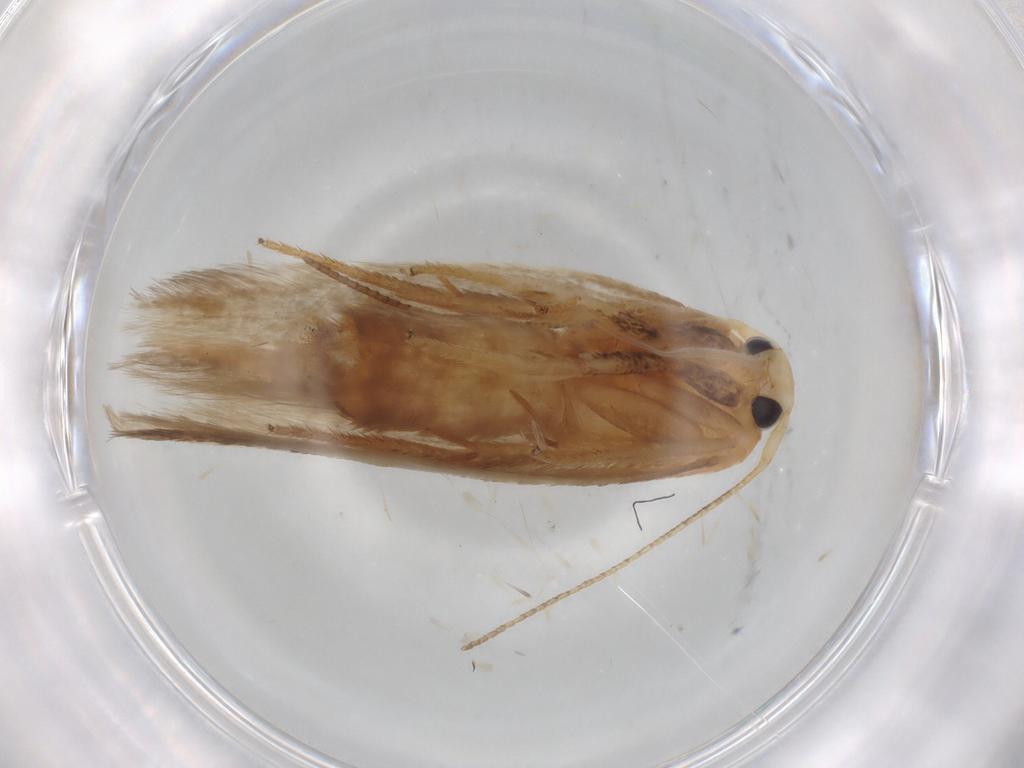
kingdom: Animalia
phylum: Arthropoda
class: Insecta
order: Lepidoptera
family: Geometridae
